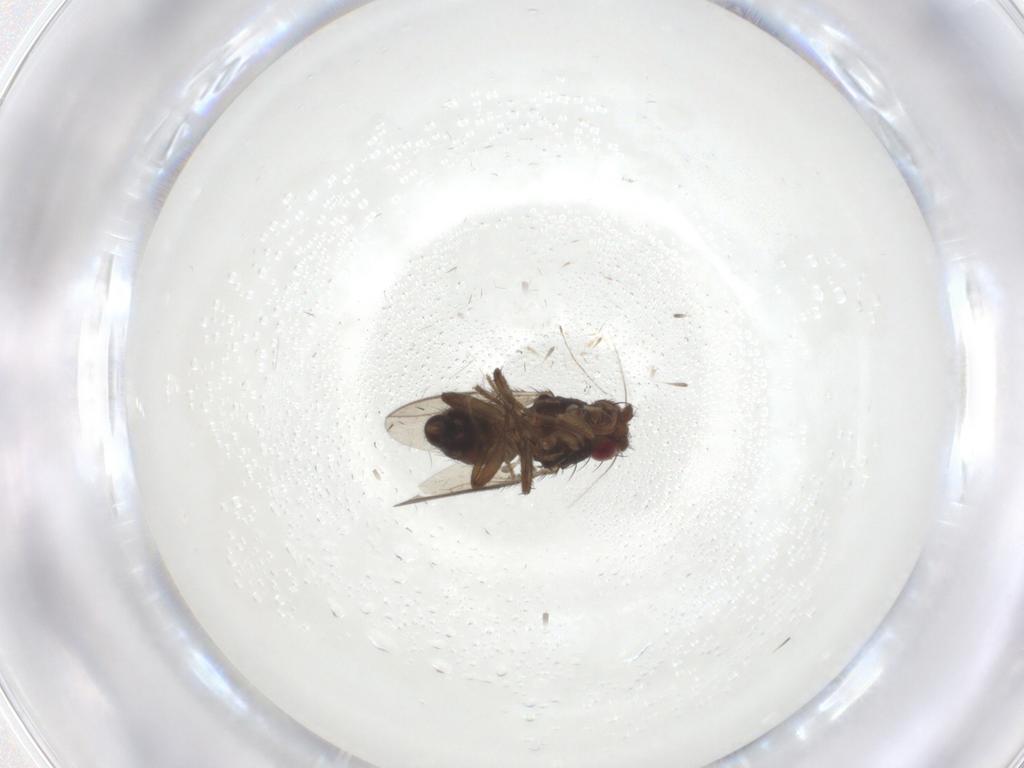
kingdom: Animalia
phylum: Arthropoda
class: Insecta
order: Diptera
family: Sphaeroceridae
